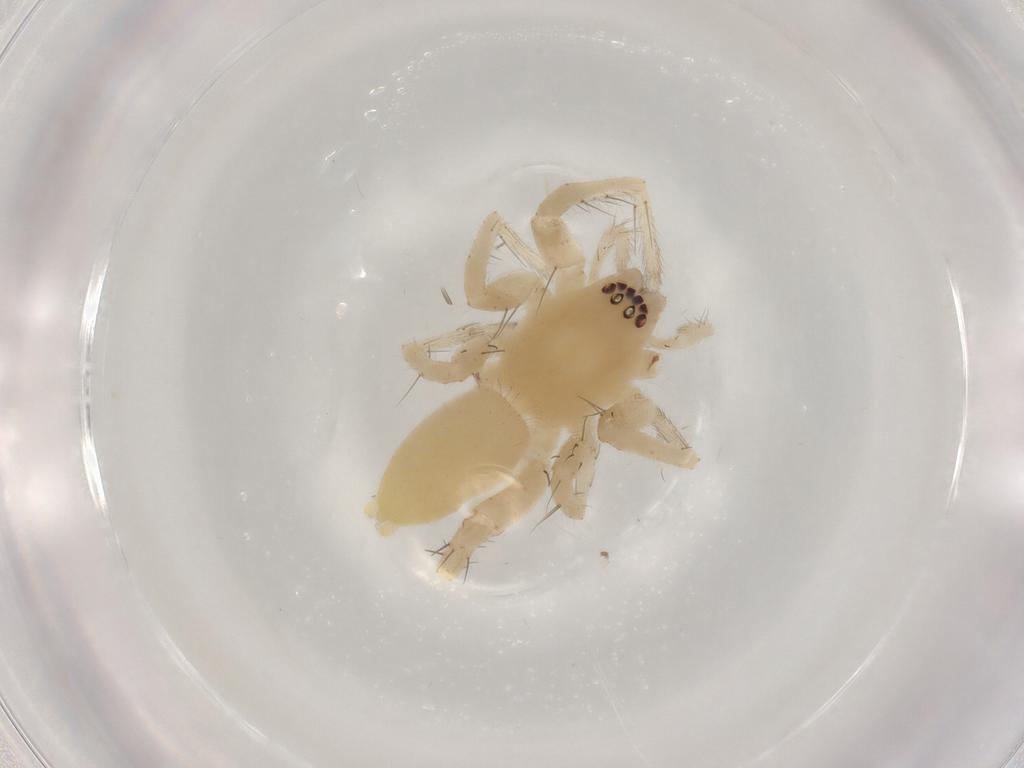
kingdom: Animalia
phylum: Arthropoda
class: Arachnida
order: Araneae
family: Anyphaenidae
